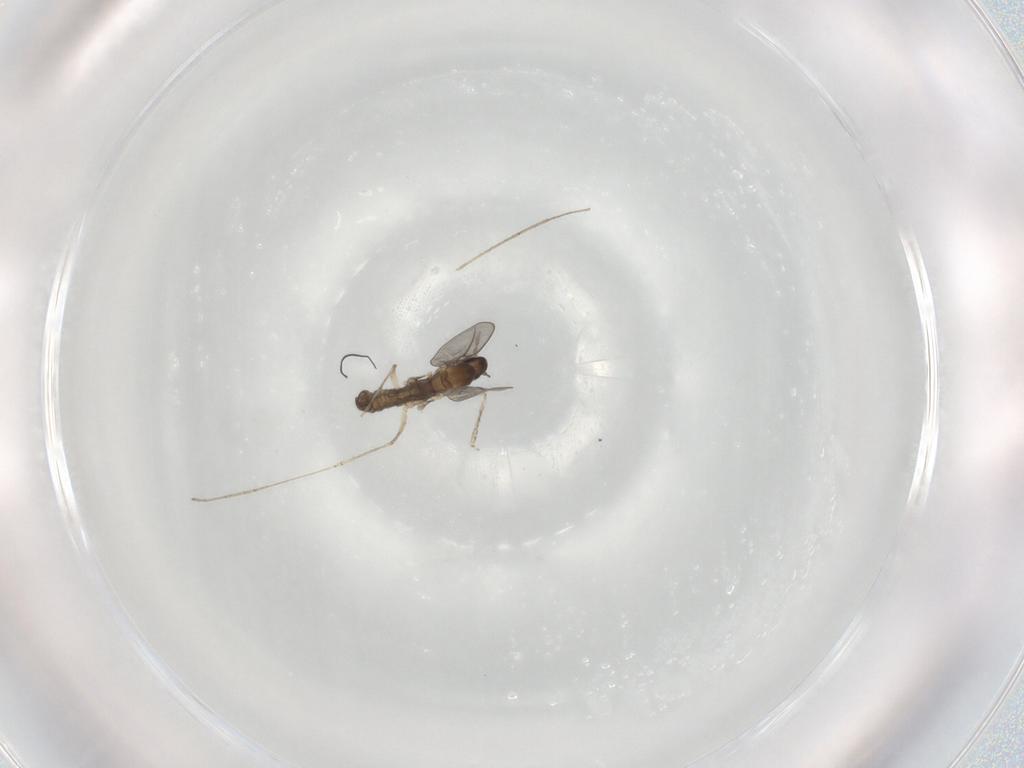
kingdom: Animalia
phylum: Arthropoda
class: Insecta
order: Diptera
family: Cecidomyiidae
